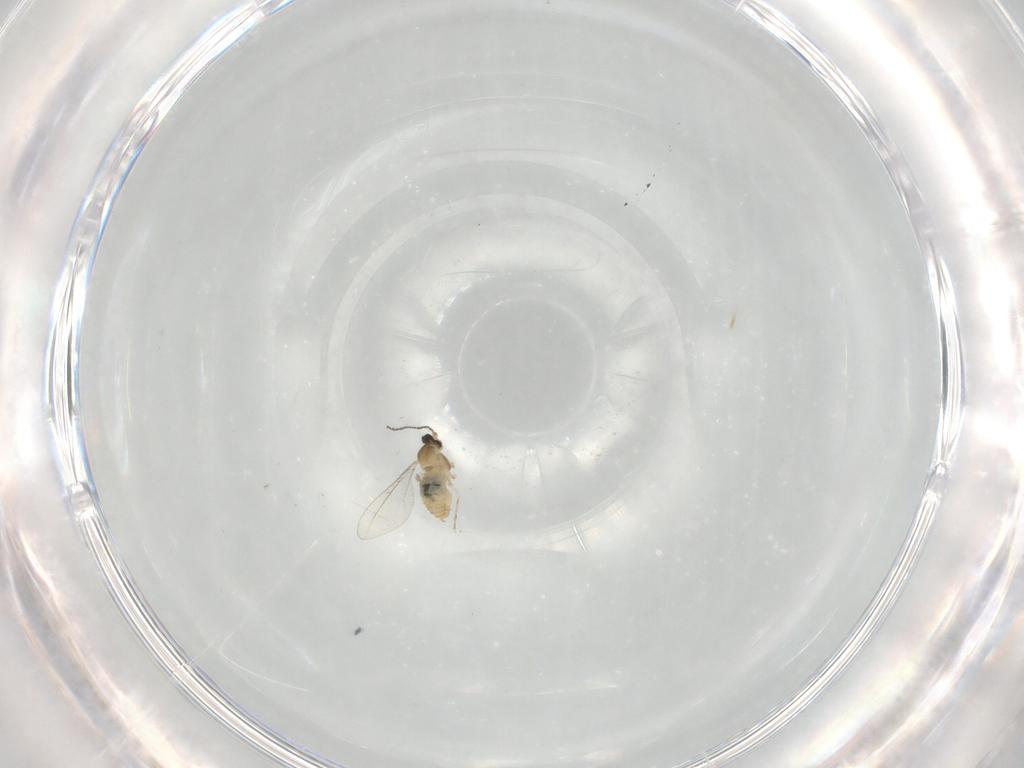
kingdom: Animalia
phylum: Arthropoda
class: Insecta
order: Diptera
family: Cecidomyiidae
